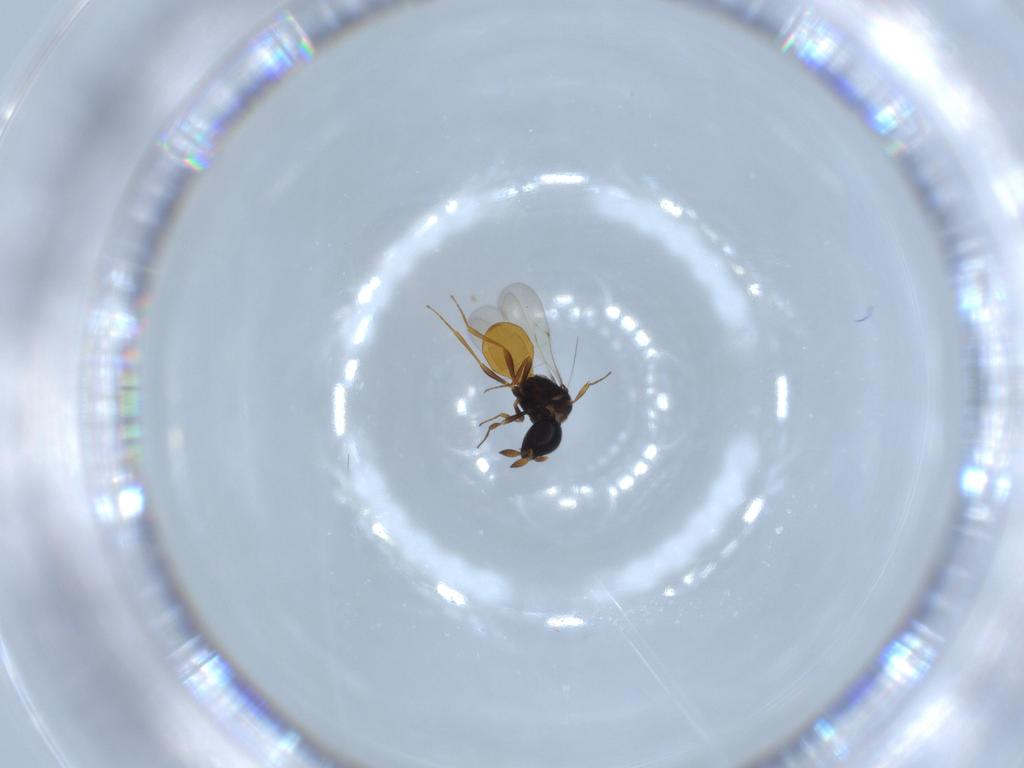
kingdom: Animalia
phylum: Arthropoda
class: Insecta
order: Hymenoptera
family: Scelionidae
